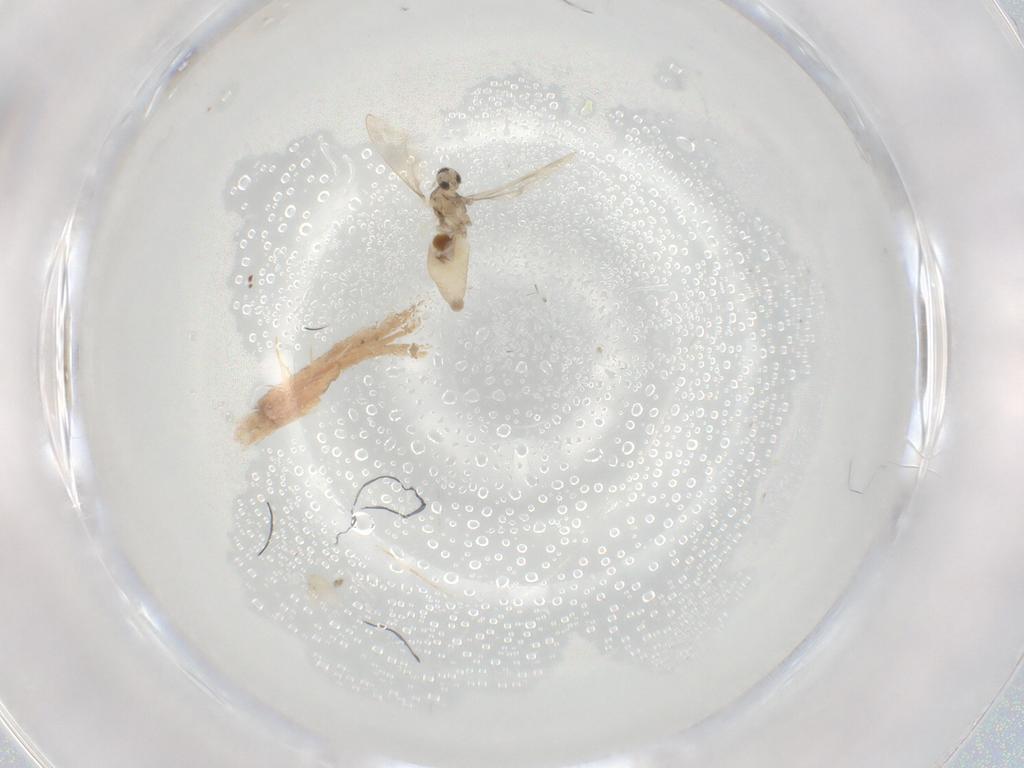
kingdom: Animalia
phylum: Arthropoda
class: Insecta
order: Diptera
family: Cecidomyiidae
